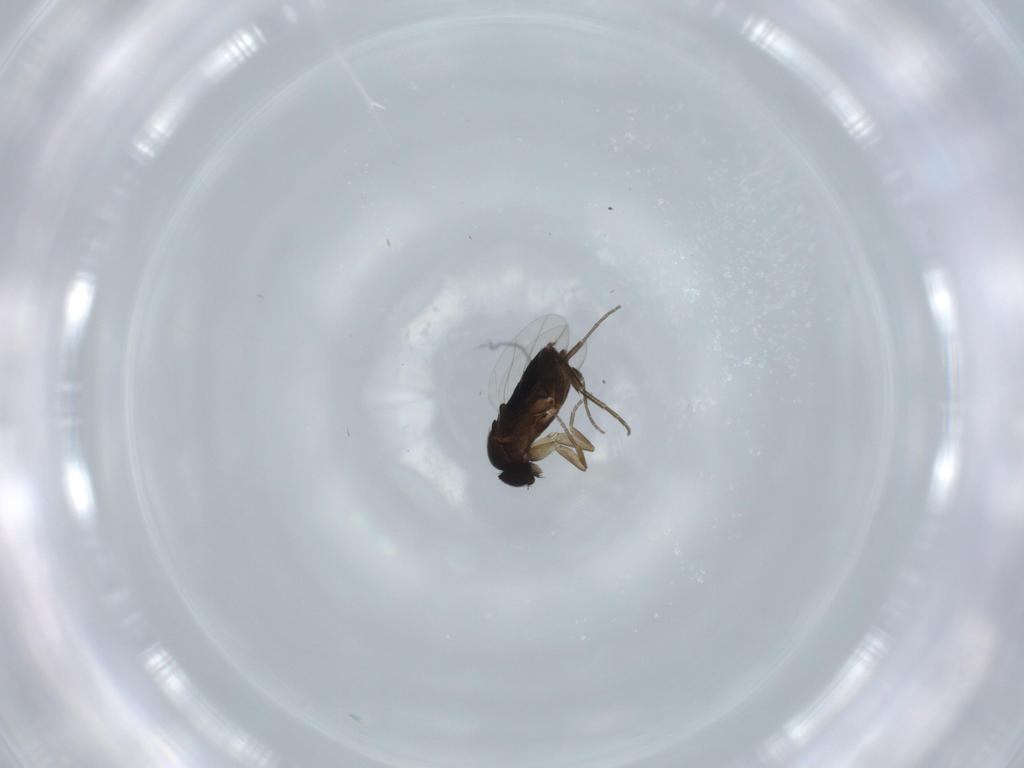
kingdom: Animalia
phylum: Arthropoda
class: Insecta
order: Diptera
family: Phoridae
